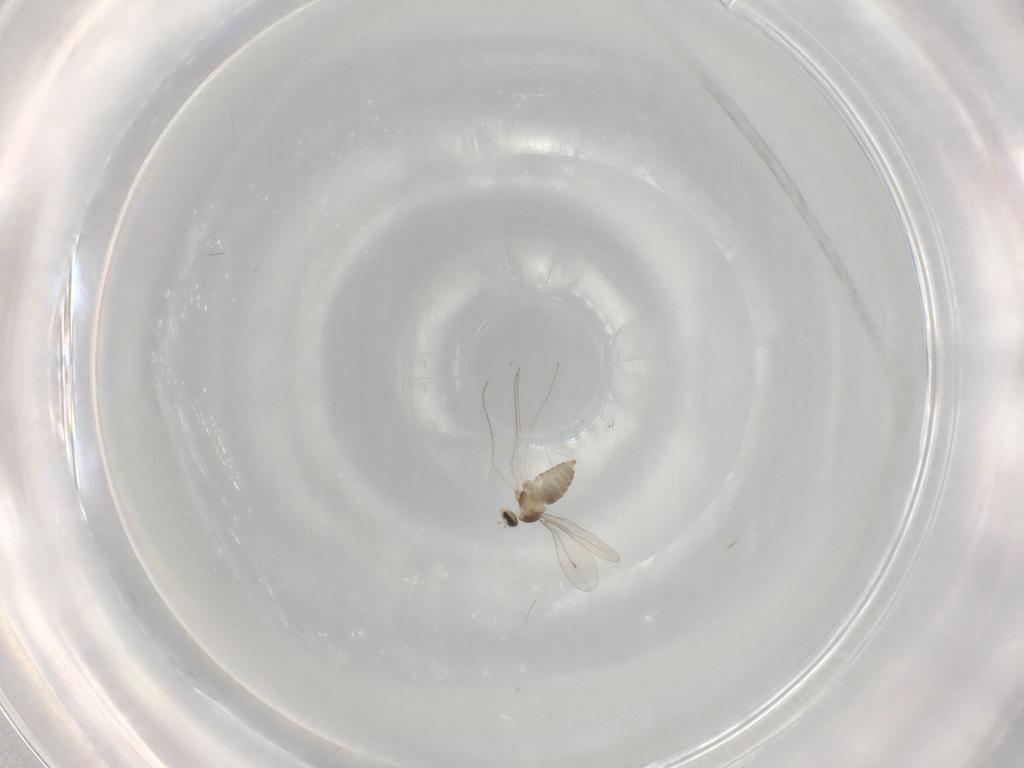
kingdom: Animalia
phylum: Arthropoda
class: Insecta
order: Diptera
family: Cecidomyiidae
